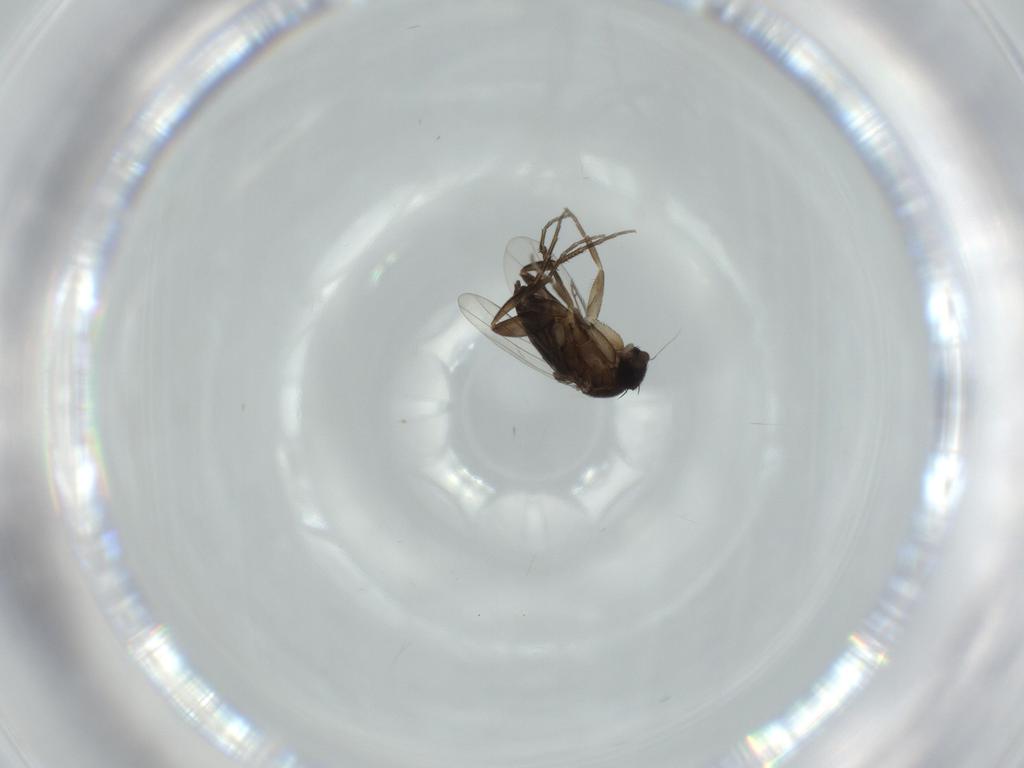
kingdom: Animalia
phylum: Arthropoda
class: Insecta
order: Diptera
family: Phoridae
